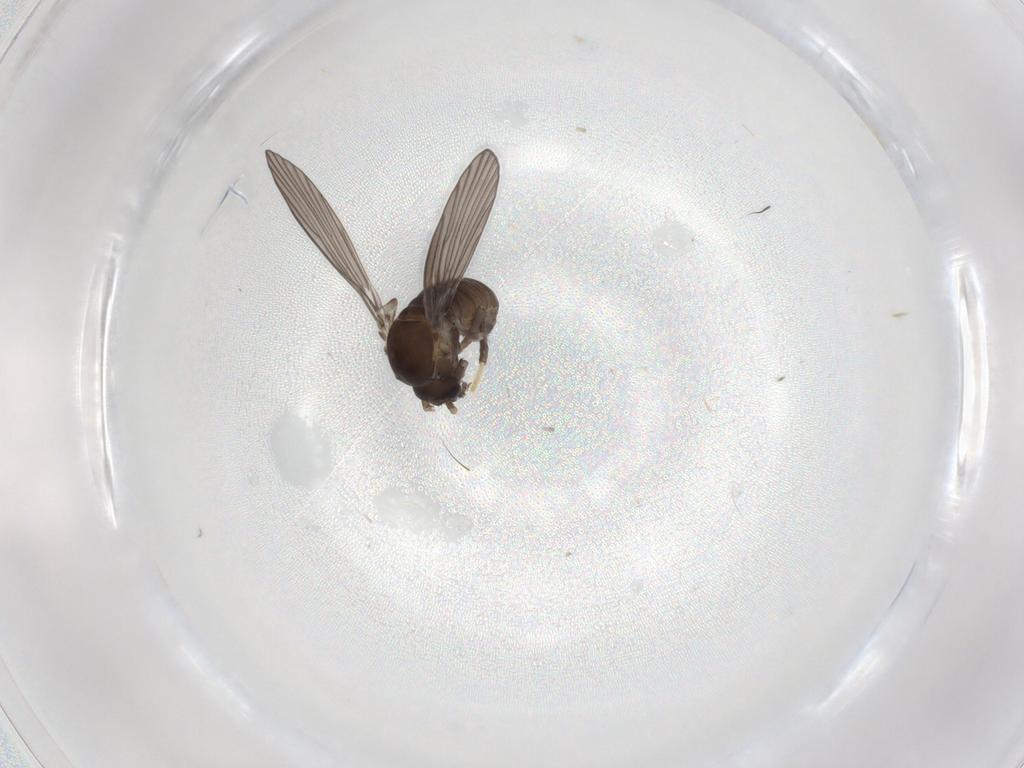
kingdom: Animalia
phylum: Arthropoda
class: Insecta
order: Diptera
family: Psychodidae
